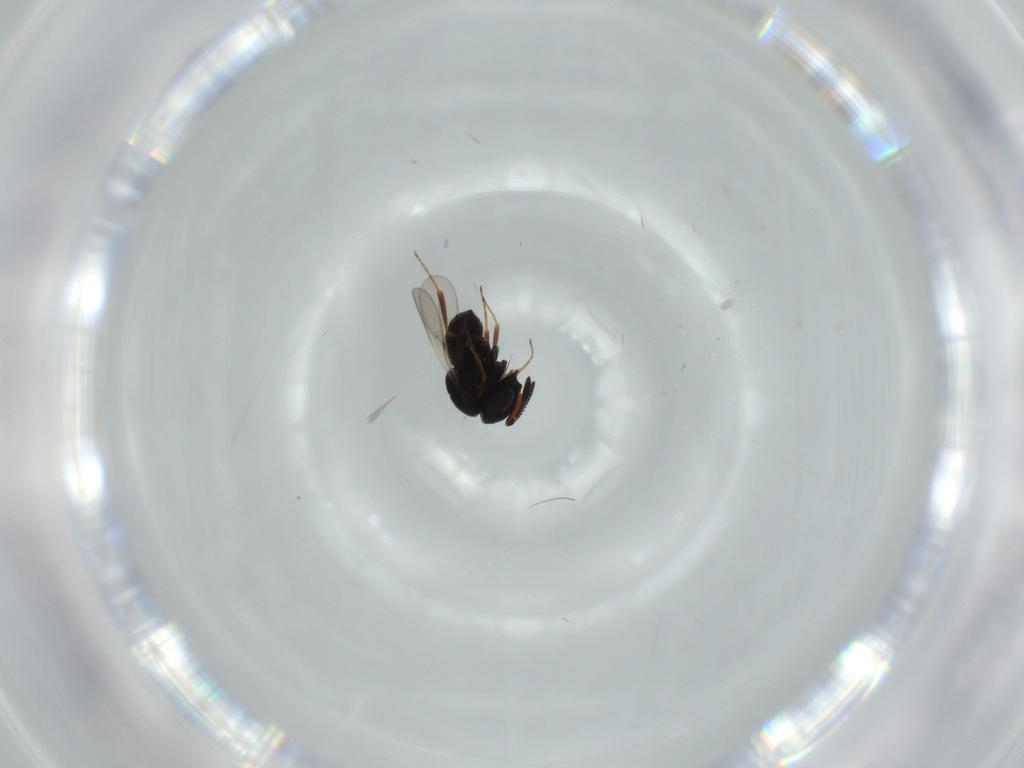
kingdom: Animalia
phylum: Arthropoda
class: Insecta
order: Hymenoptera
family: Scelionidae
